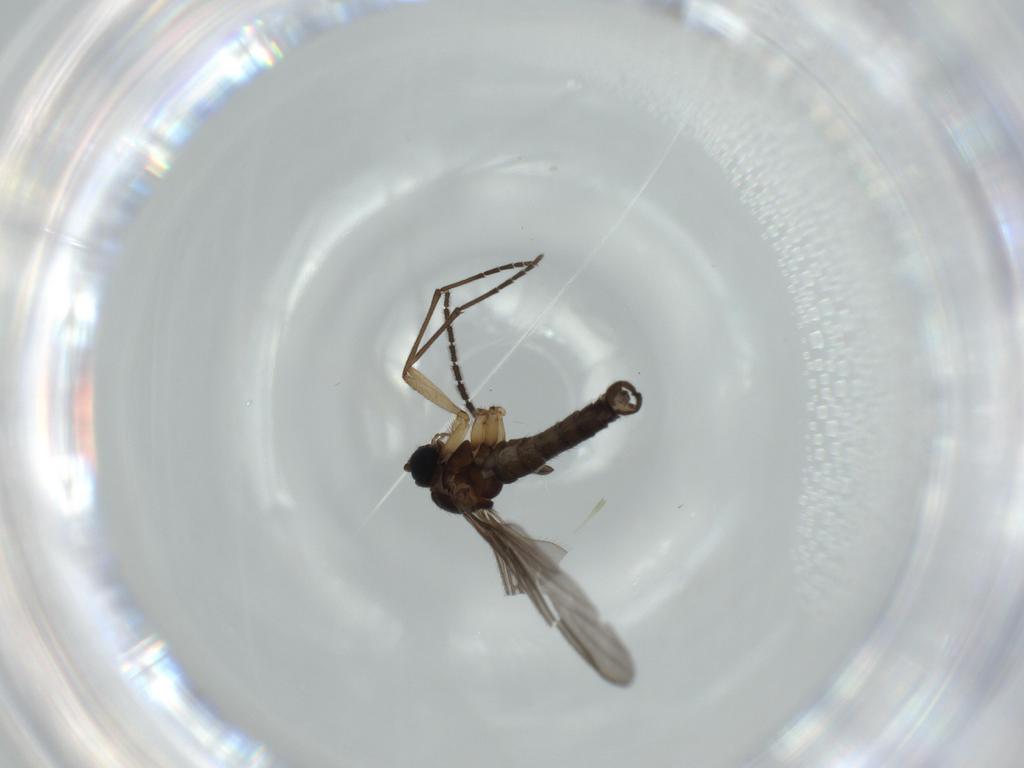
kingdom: Animalia
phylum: Arthropoda
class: Insecta
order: Diptera
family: Sciaridae
